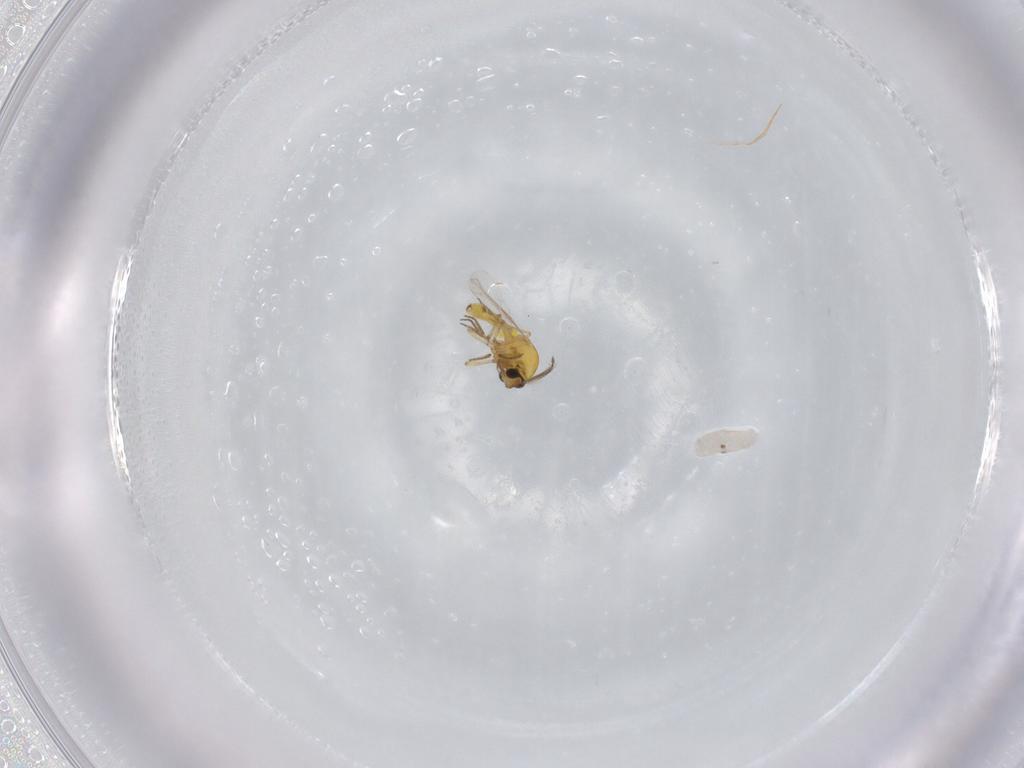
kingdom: Animalia
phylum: Arthropoda
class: Insecta
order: Diptera
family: Ceratopogonidae
